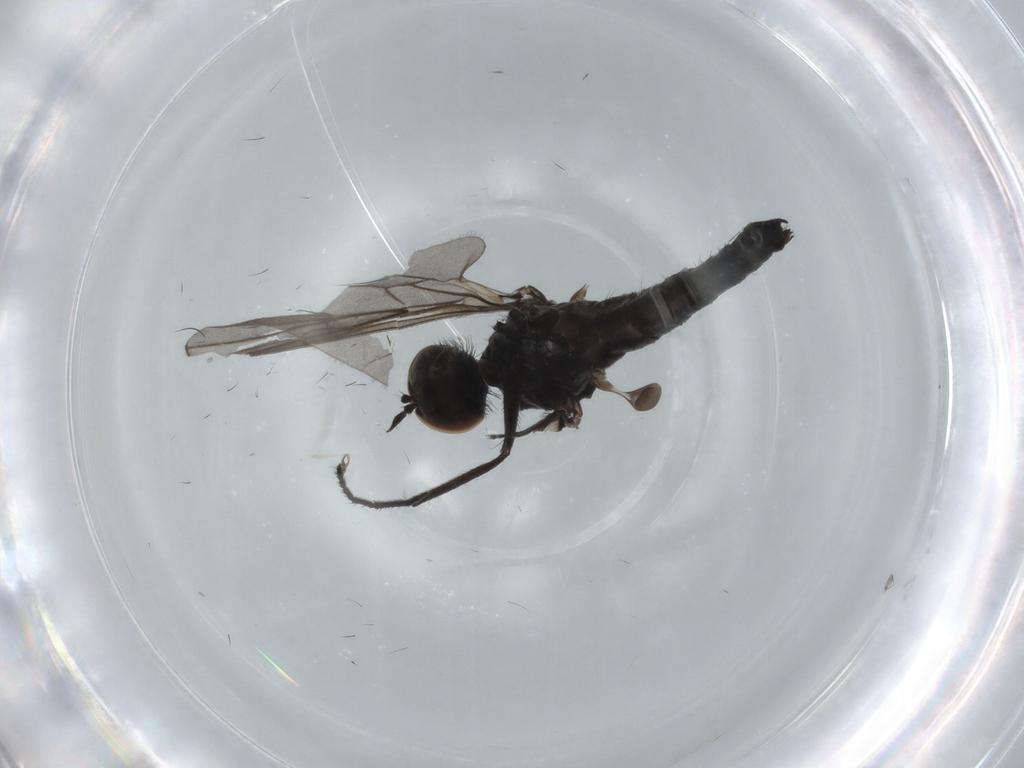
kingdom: Animalia
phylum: Arthropoda
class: Insecta
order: Diptera
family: Hybotidae
